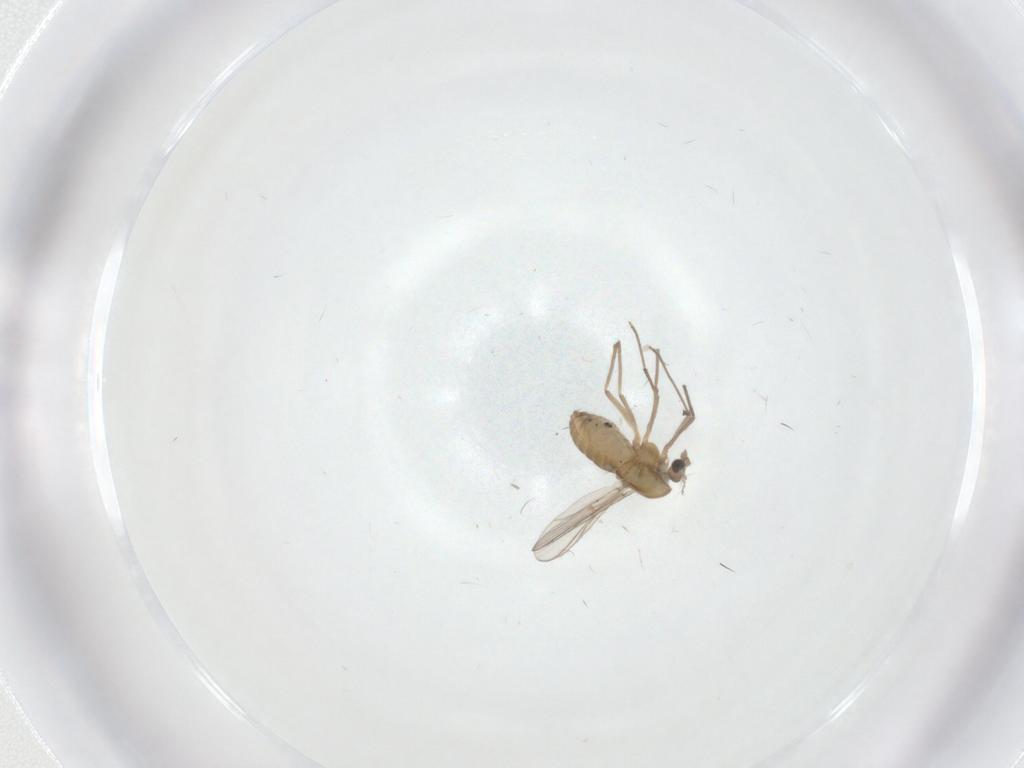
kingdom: Animalia
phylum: Arthropoda
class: Insecta
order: Diptera
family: Chironomidae
